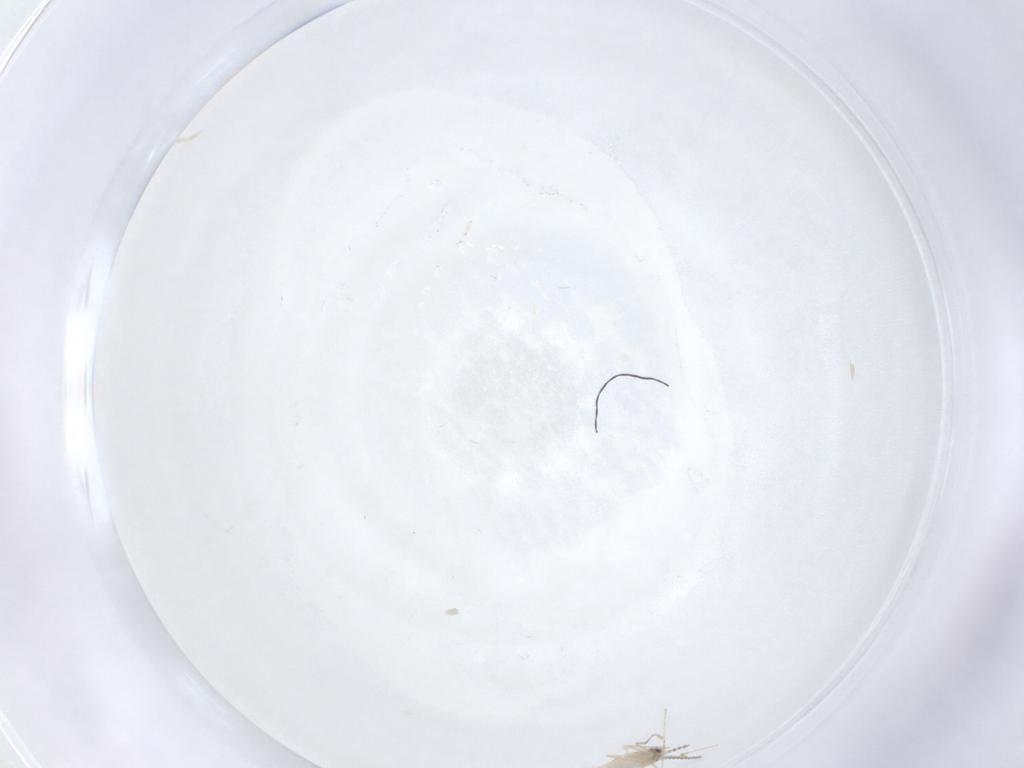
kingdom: Animalia
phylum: Arthropoda
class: Insecta
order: Diptera
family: Cecidomyiidae
